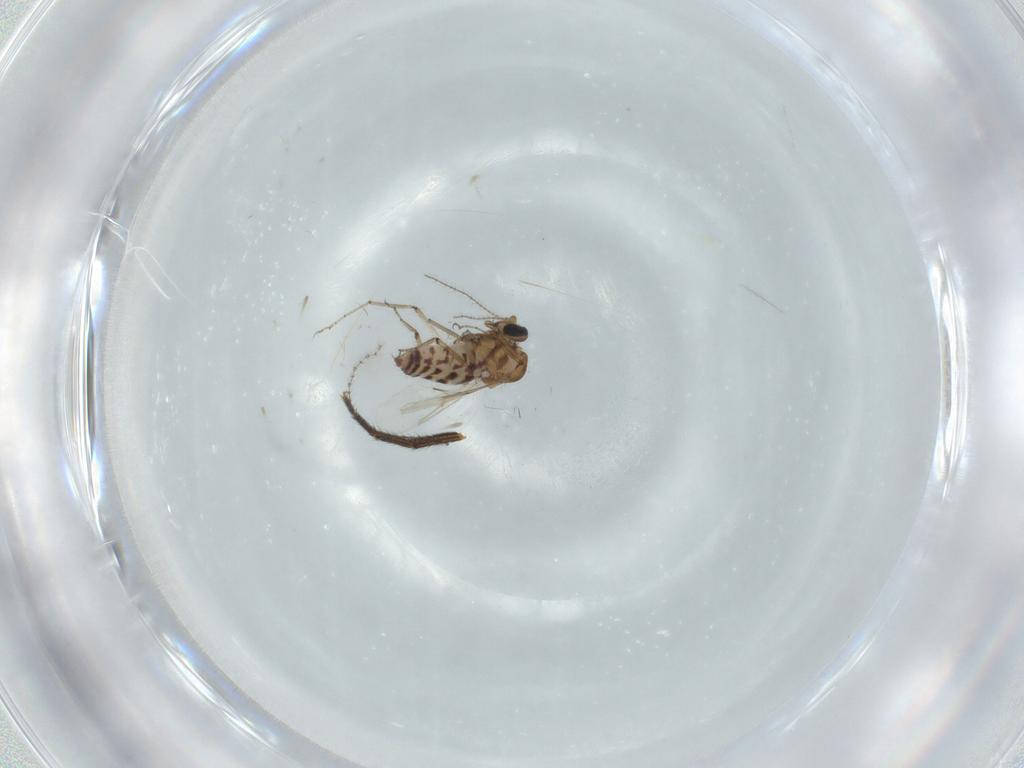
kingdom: Animalia
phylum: Arthropoda
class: Insecta
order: Diptera
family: Ceratopogonidae
